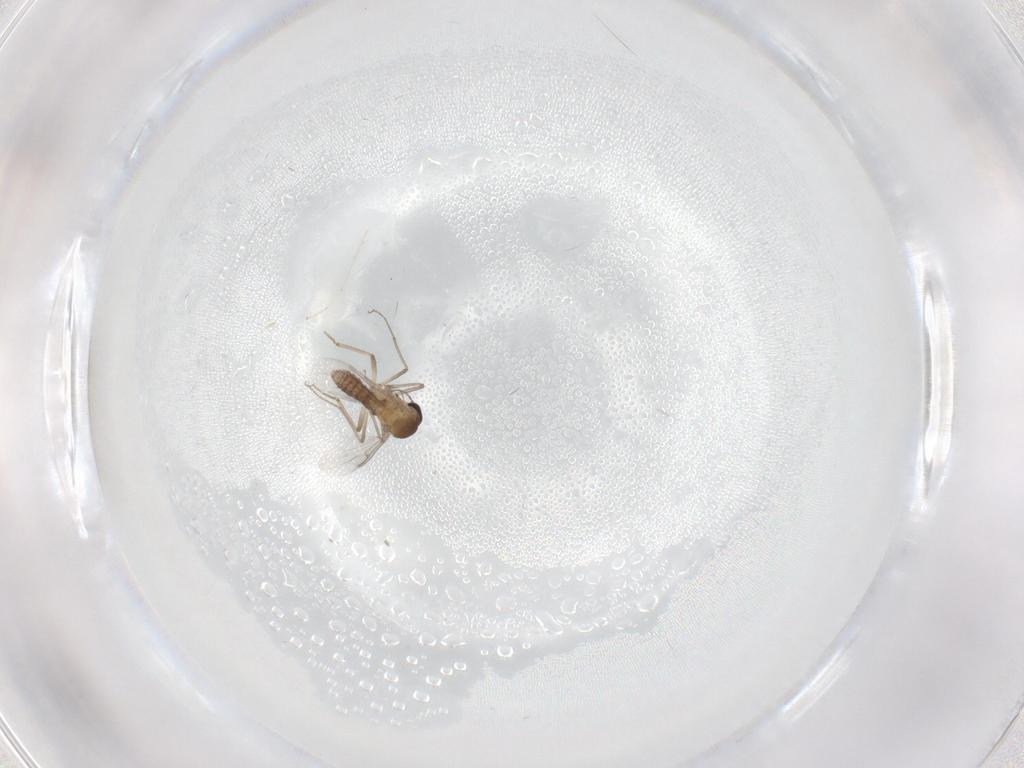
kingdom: Animalia
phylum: Arthropoda
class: Insecta
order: Diptera
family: Ceratopogonidae
